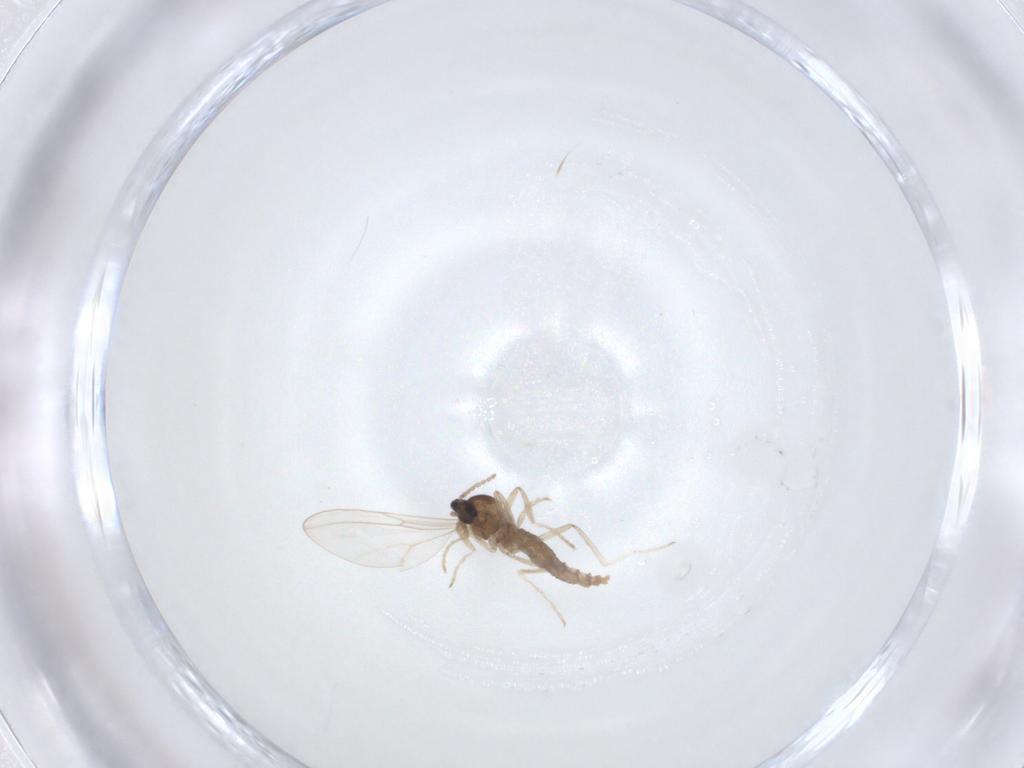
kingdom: Animalia
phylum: Arthropoda
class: Insecta
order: Diptera
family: Cecidomyiidae
